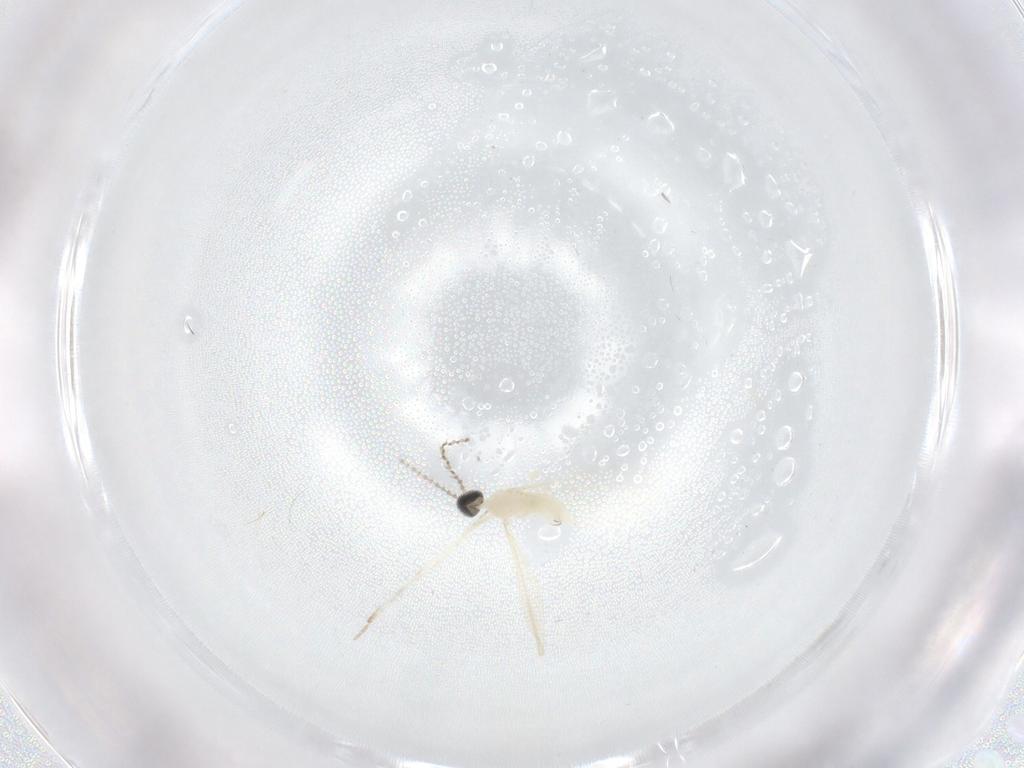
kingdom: Animalia
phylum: Arthropoda
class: Insecta
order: Diptera
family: Cecidomyiidae
